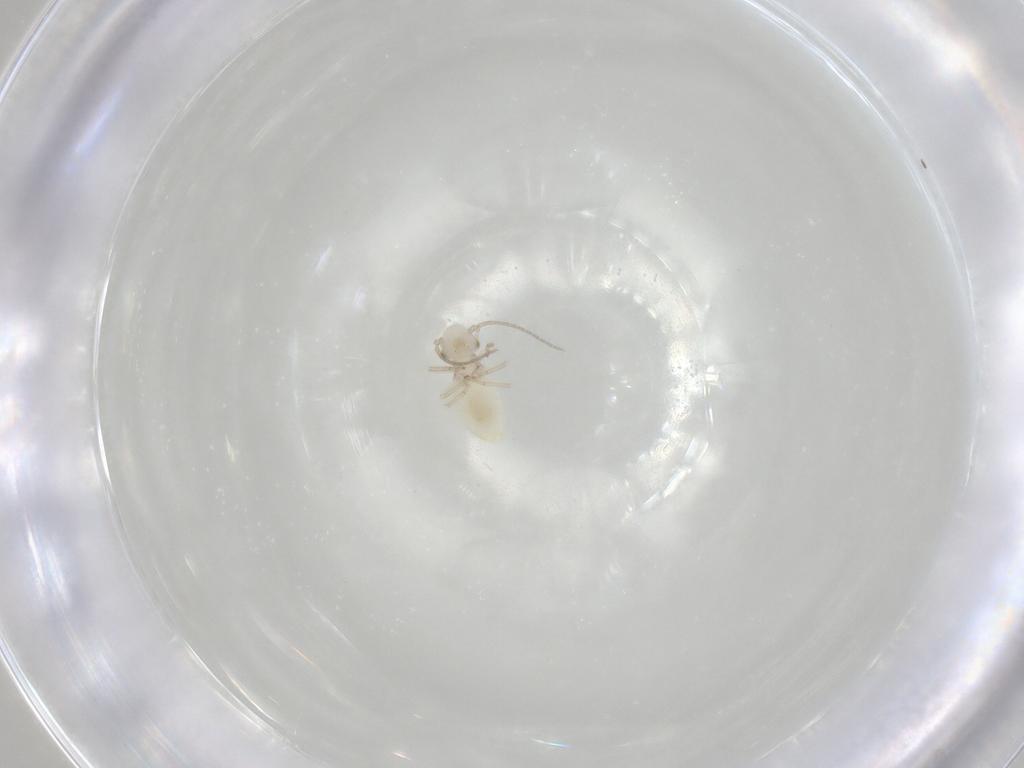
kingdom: Animalia
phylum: Arthropoda
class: Insecta
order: Psocodea
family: Caeciliusidae
